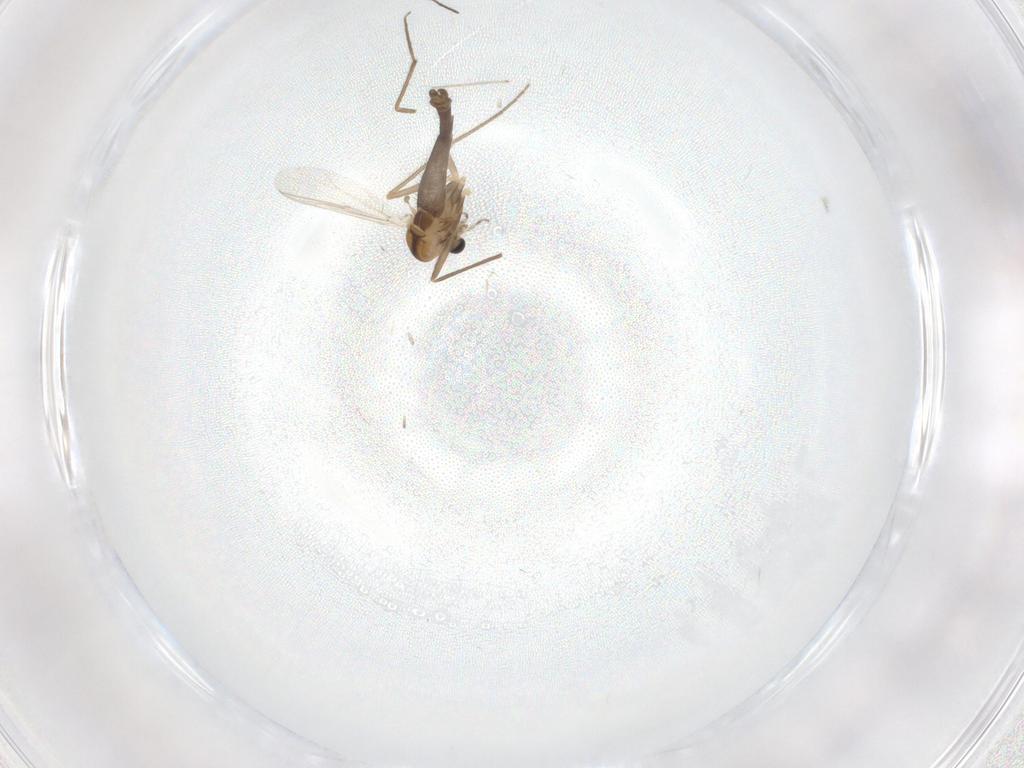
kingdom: Animalia
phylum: Arthropoda
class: Insecta
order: Diptera
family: Chironomidae
